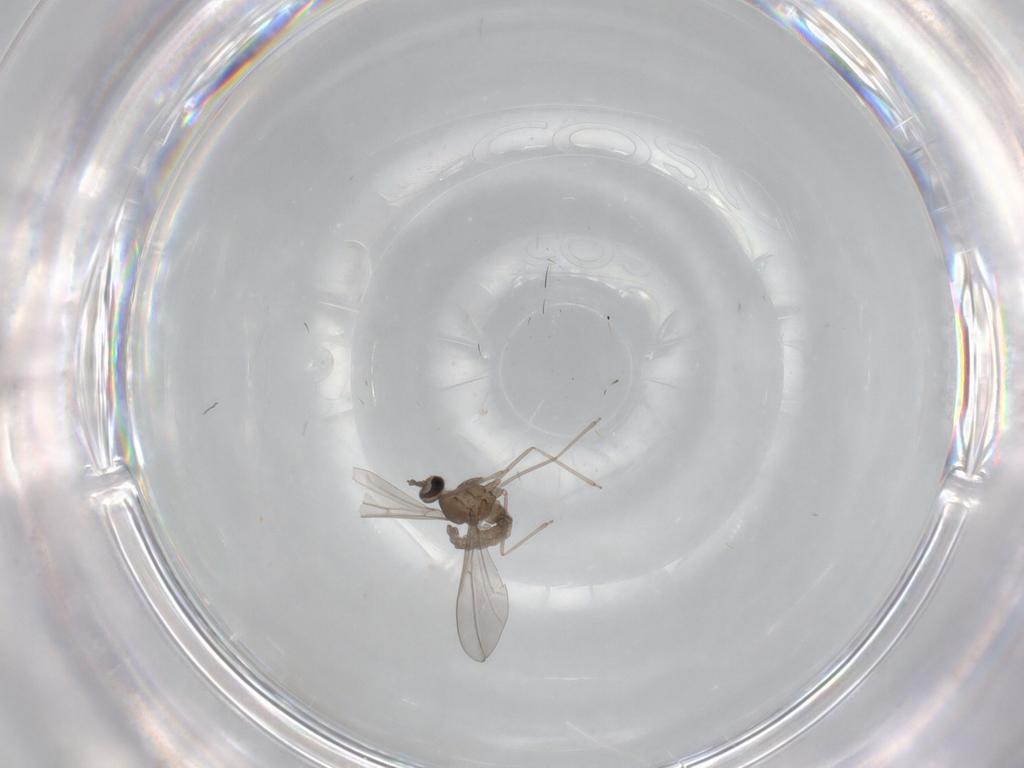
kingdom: Animalia
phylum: Arthropoda
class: Insecta
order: Diptera
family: Cecidomyiidae
